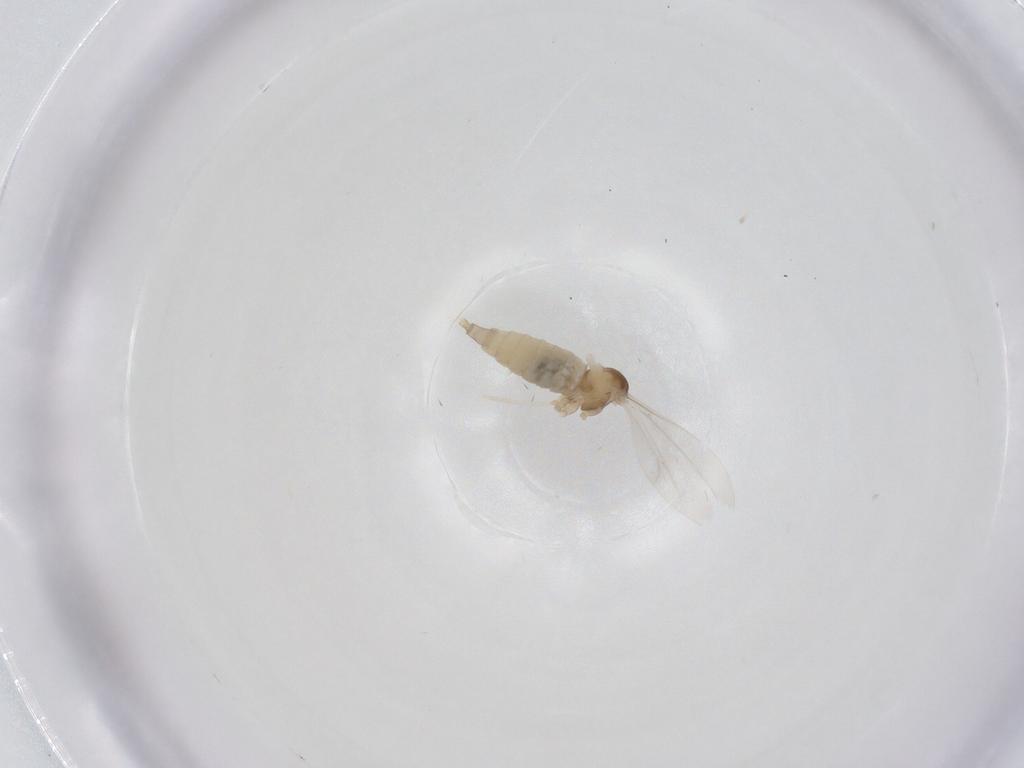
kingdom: Animalia
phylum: Arthropoda
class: Insecta
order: Diptera
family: Cecidomyiidae
